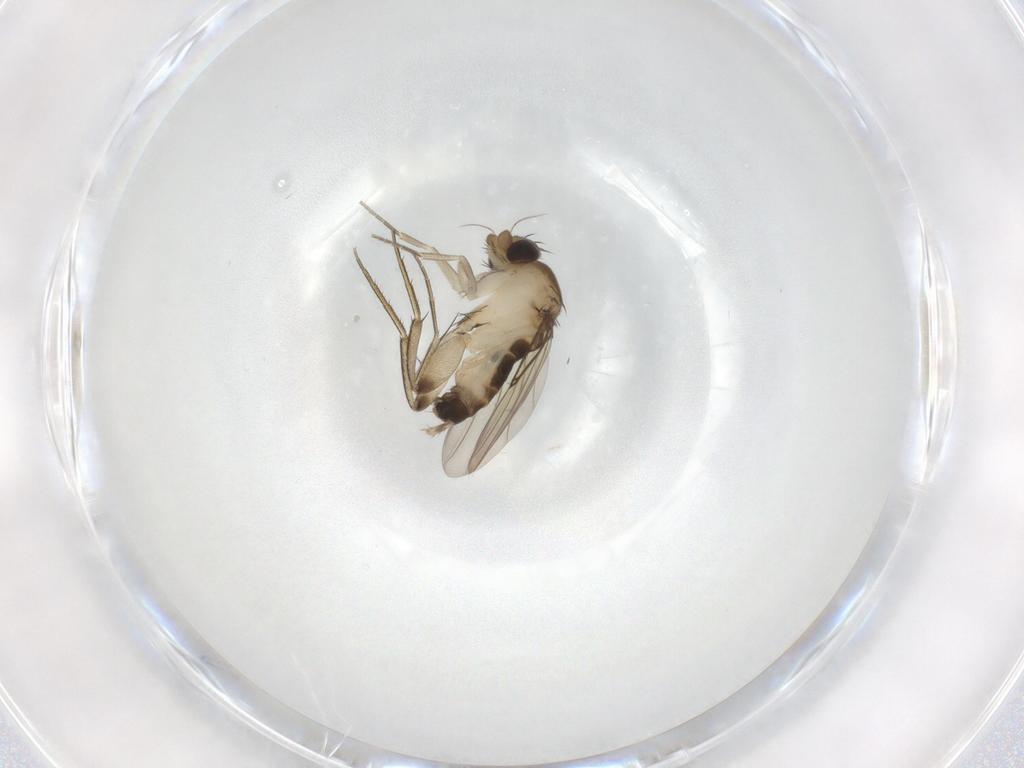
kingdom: Animalia
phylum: Arthropoda
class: Insecta
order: Diptera
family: Phoridae
